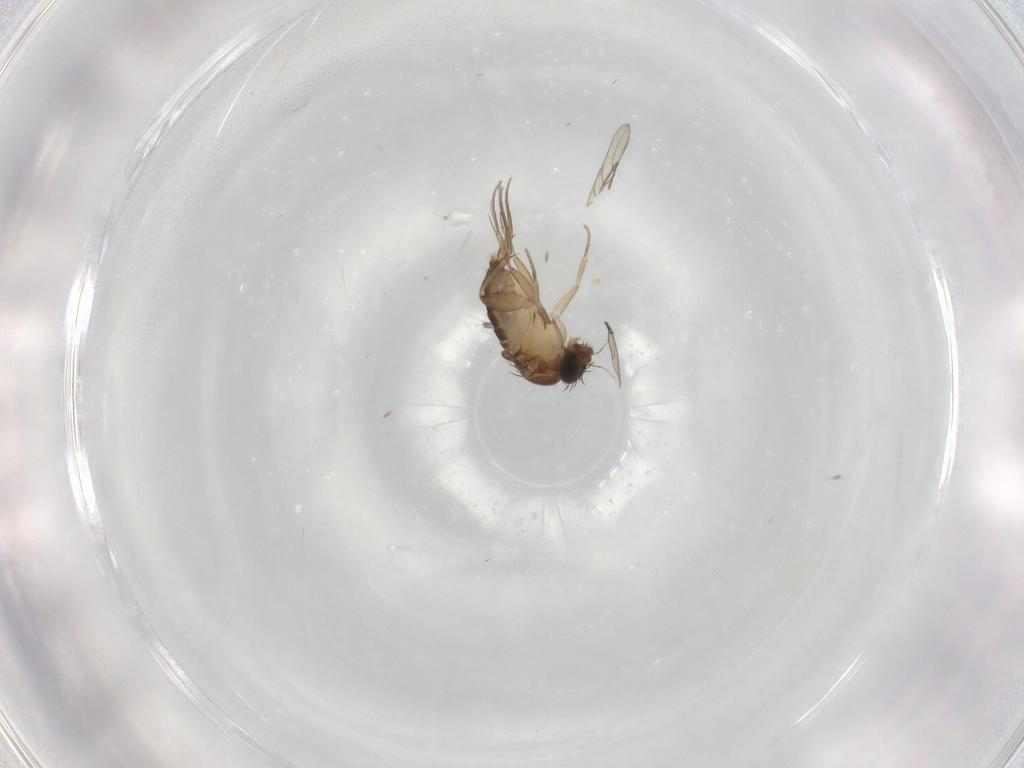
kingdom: Animalia
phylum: Arthropoda
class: Insecta
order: Diptera
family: Phoridae
